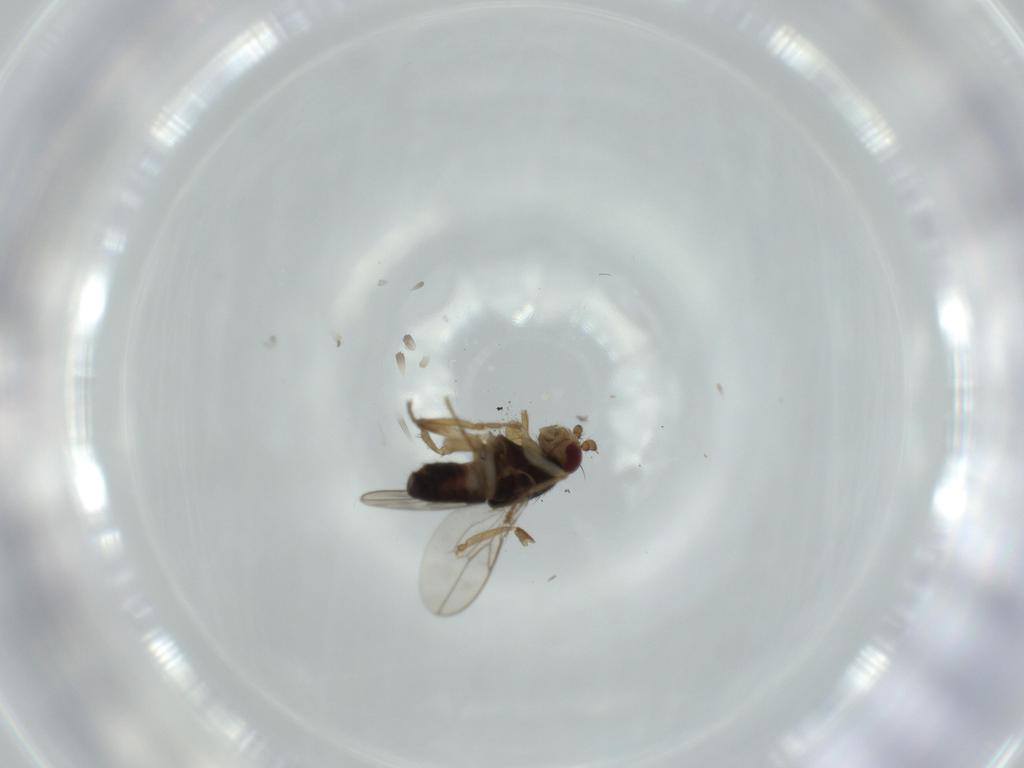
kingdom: Animalia
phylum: Arthropoda
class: Insecta
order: Diptera
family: Sphaeroceridae
